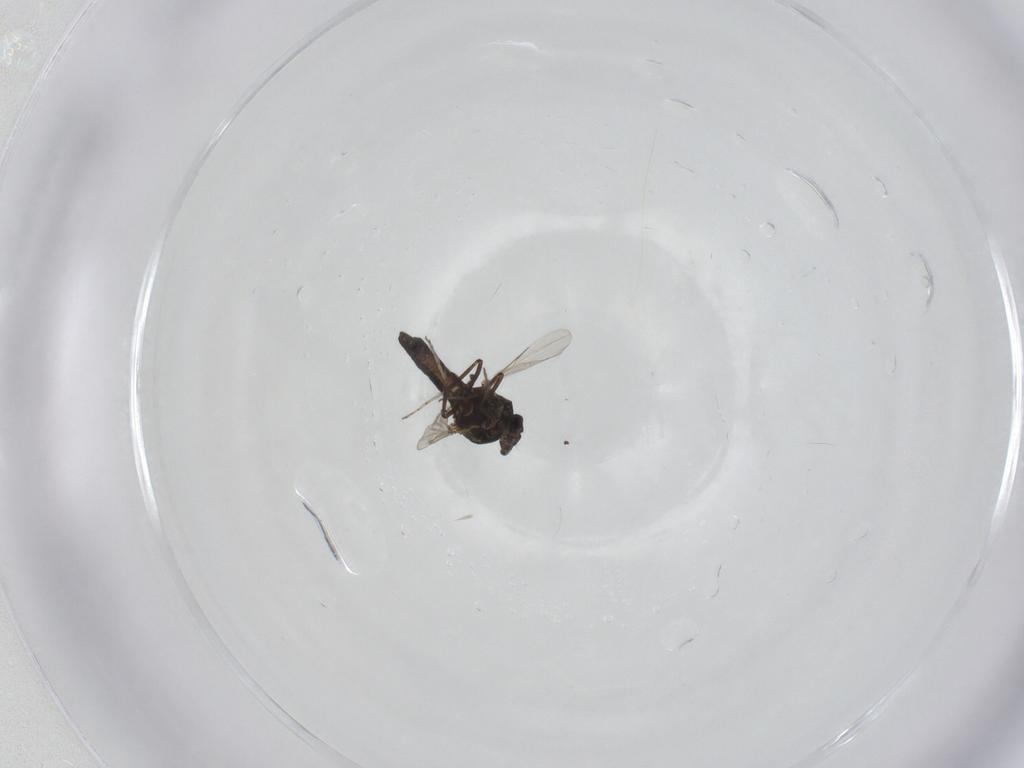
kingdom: Animalia
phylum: Arthropoda
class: Insecta
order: Diptera
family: Ceratopogonidae
